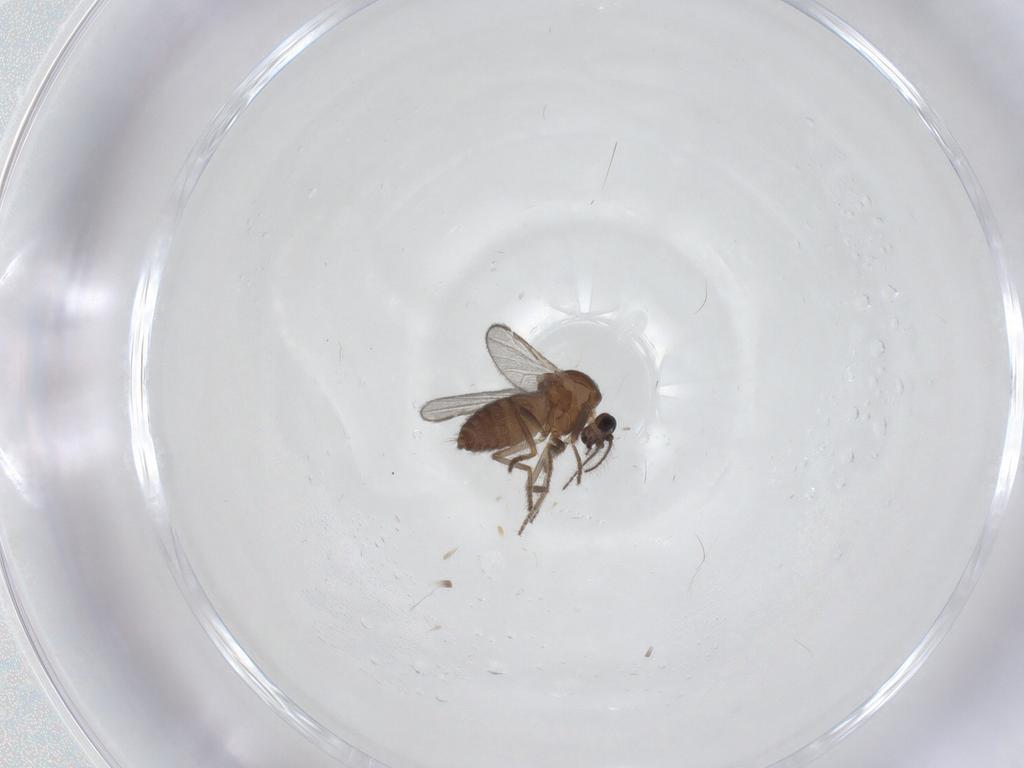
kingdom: Animalia
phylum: Arthropoda
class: Insecta
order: Diptera
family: Ceratopogonidae
